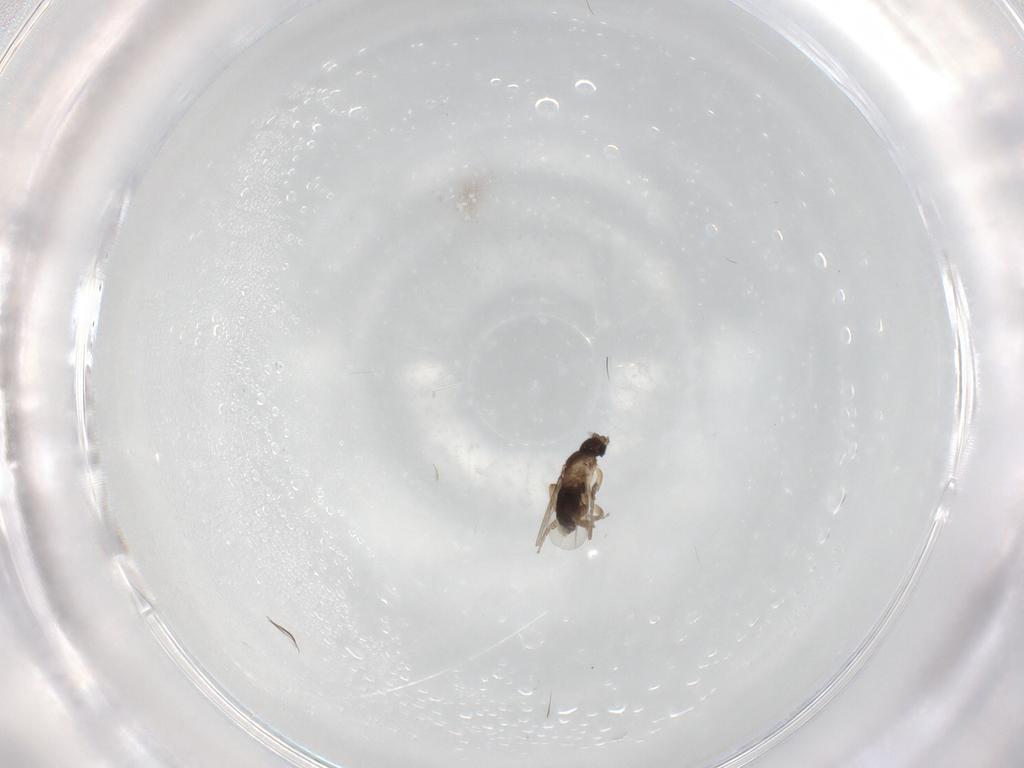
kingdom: Animalia
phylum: Arthropoda
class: Insecta
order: Diptera
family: Phoridae
